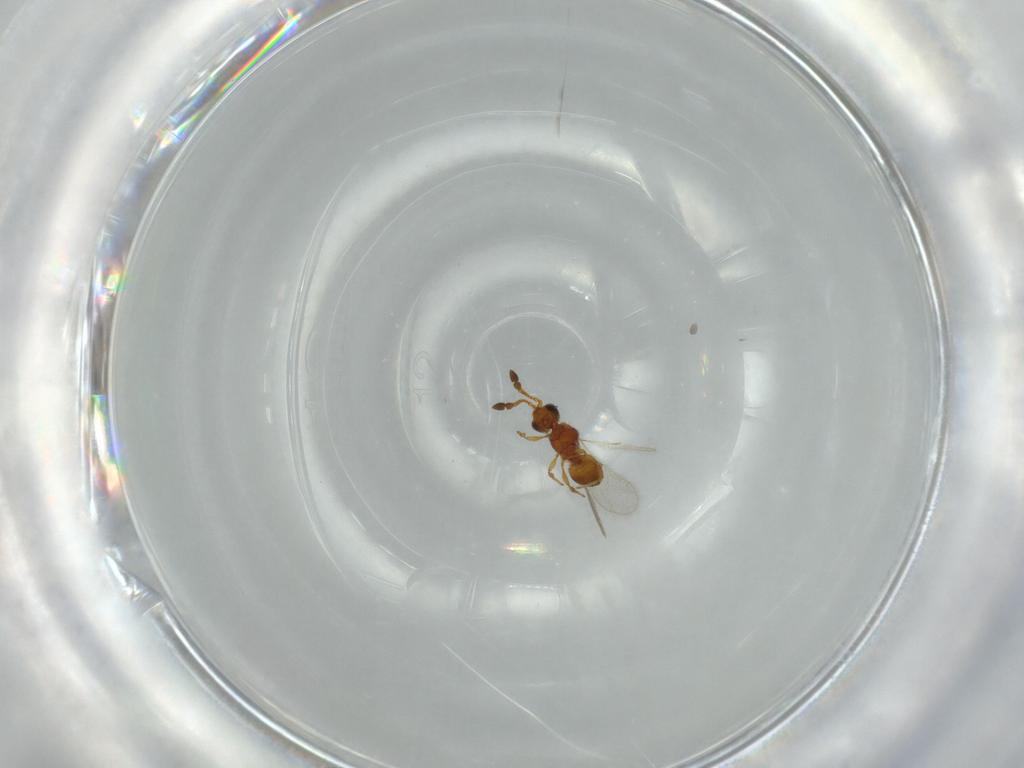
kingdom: Animalia
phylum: Arthropoda
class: Insecta
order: Hymenoptera
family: Diapriidae
